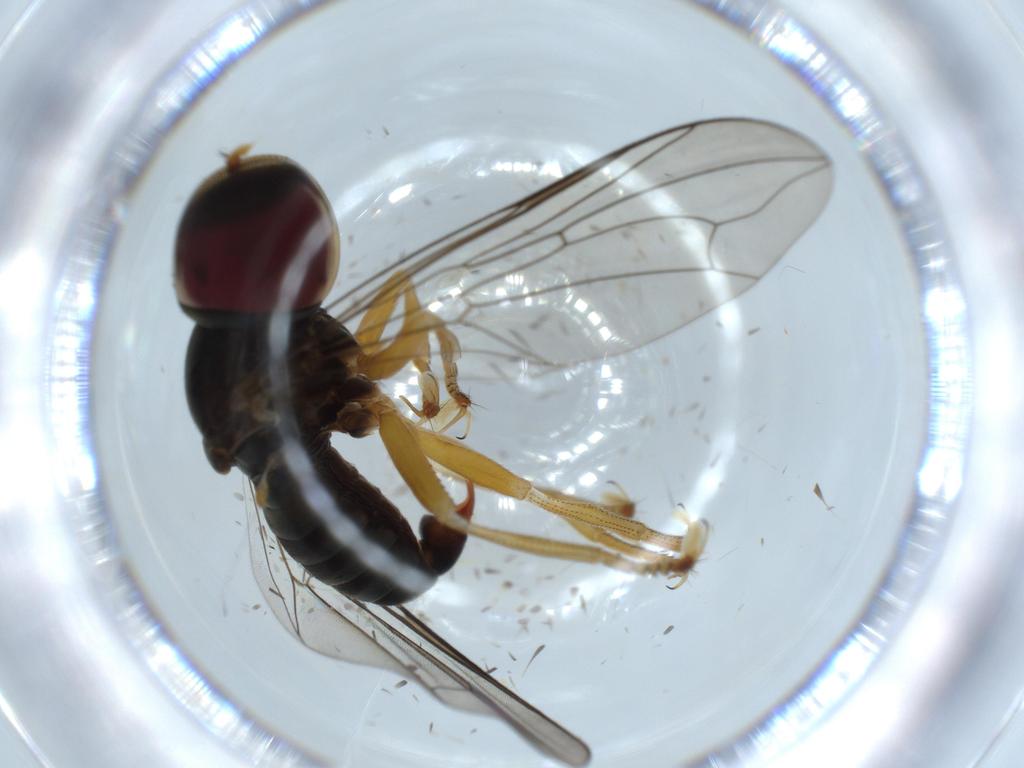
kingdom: Animalia
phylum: Arthropoda
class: Insecta
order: Diptera
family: Pipunculidae
